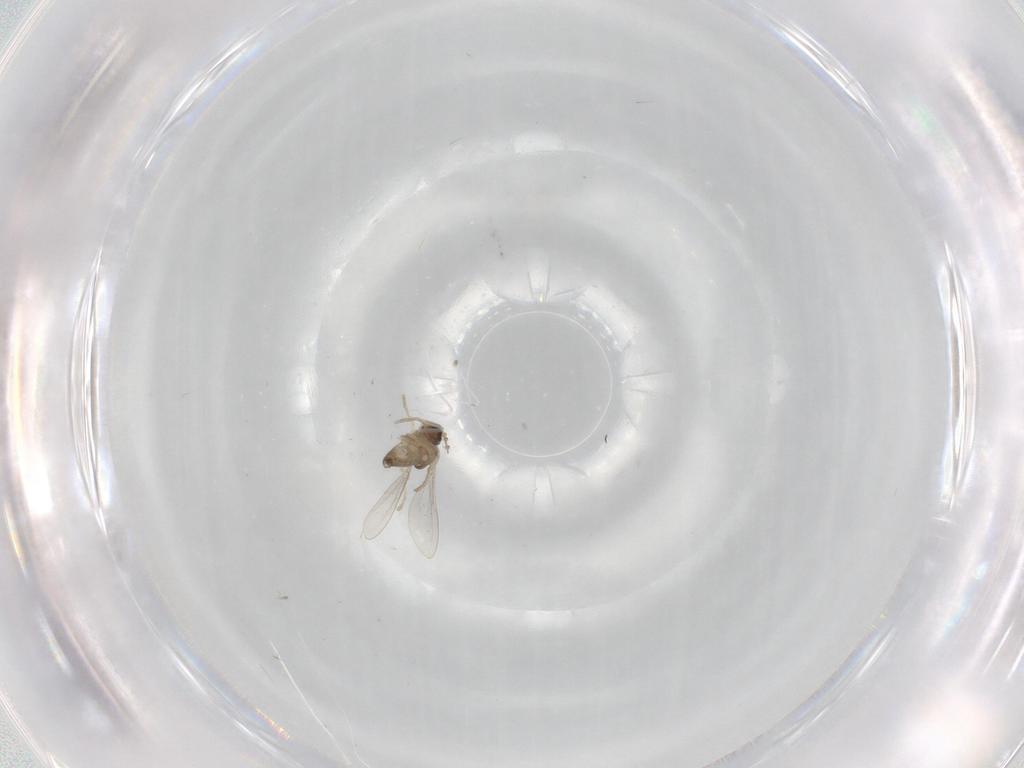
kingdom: Animalia
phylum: Arthropoda
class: Insecta
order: Diptera
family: Cecidomyiidae
